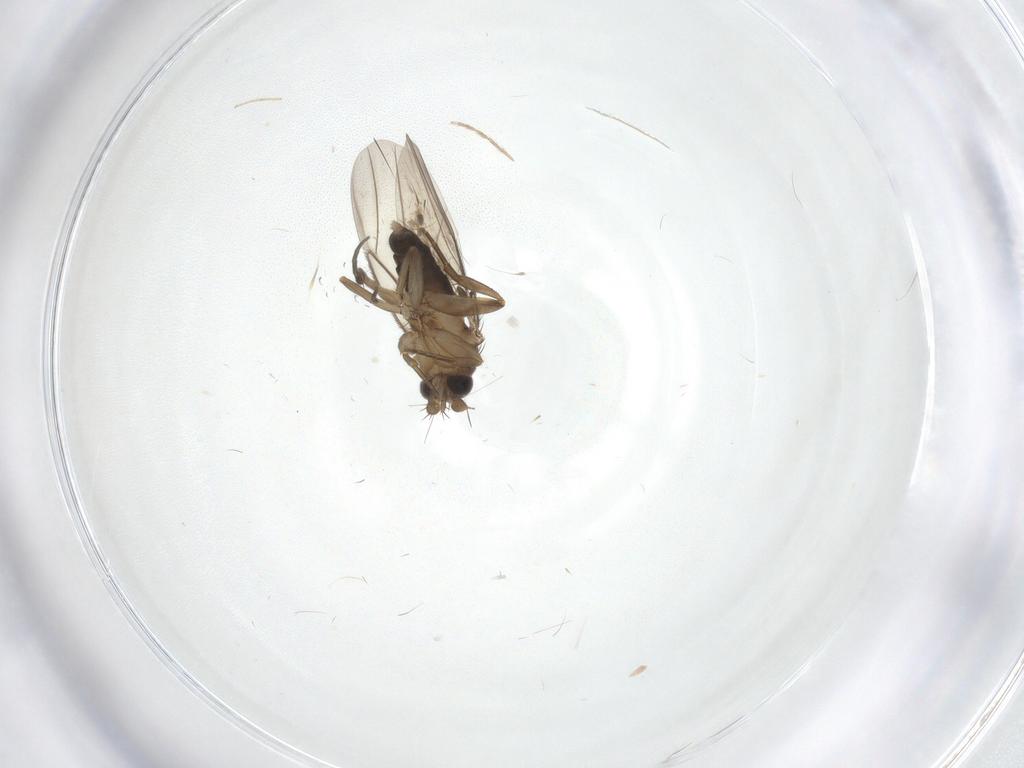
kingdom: Animalia
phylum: Arthropoda
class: Insecta
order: Diptera
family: Phoridae
